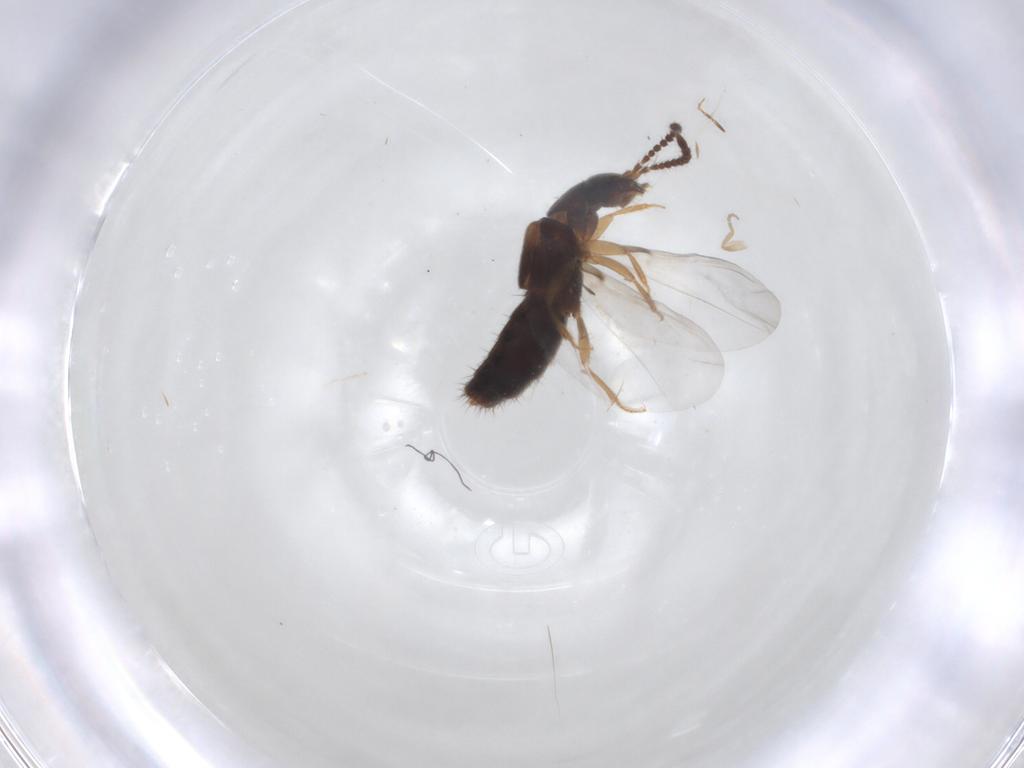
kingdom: Animalia
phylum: Arthropoda
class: Insecta
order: Coleoptera
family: Staphylinidae
